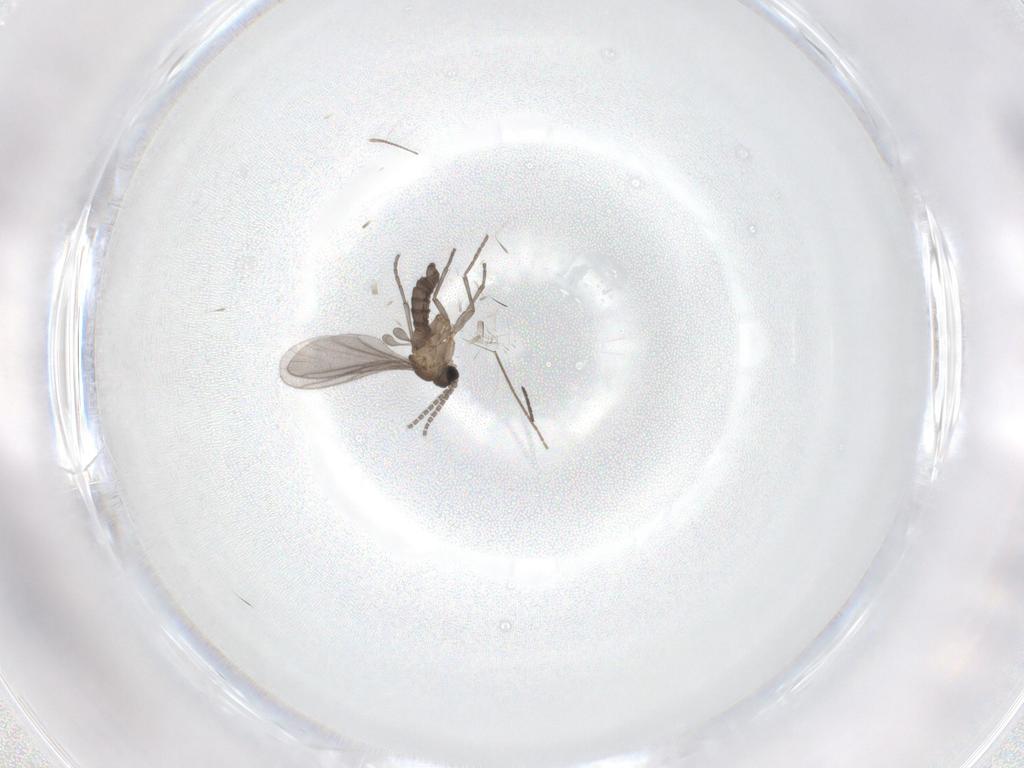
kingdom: Animalia
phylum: Arthropoda
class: Insecta
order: Diptera
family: Sciaridae
